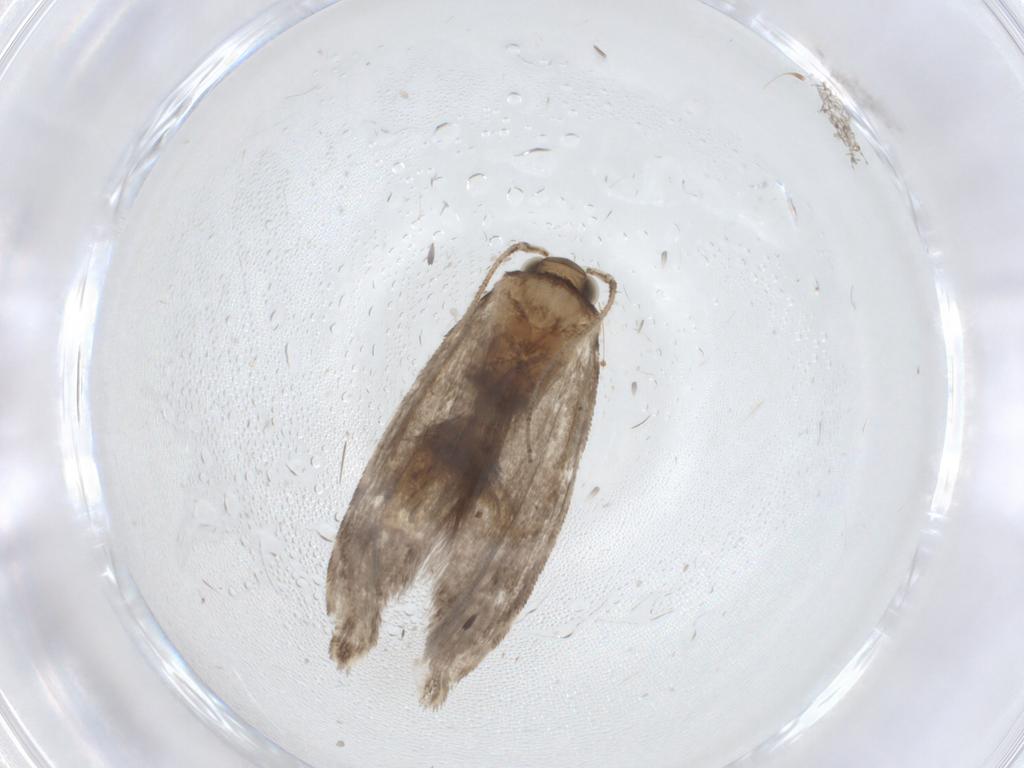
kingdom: Animalia
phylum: Arthropoda
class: Insecta
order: Lepidoptera
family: Tineidae
